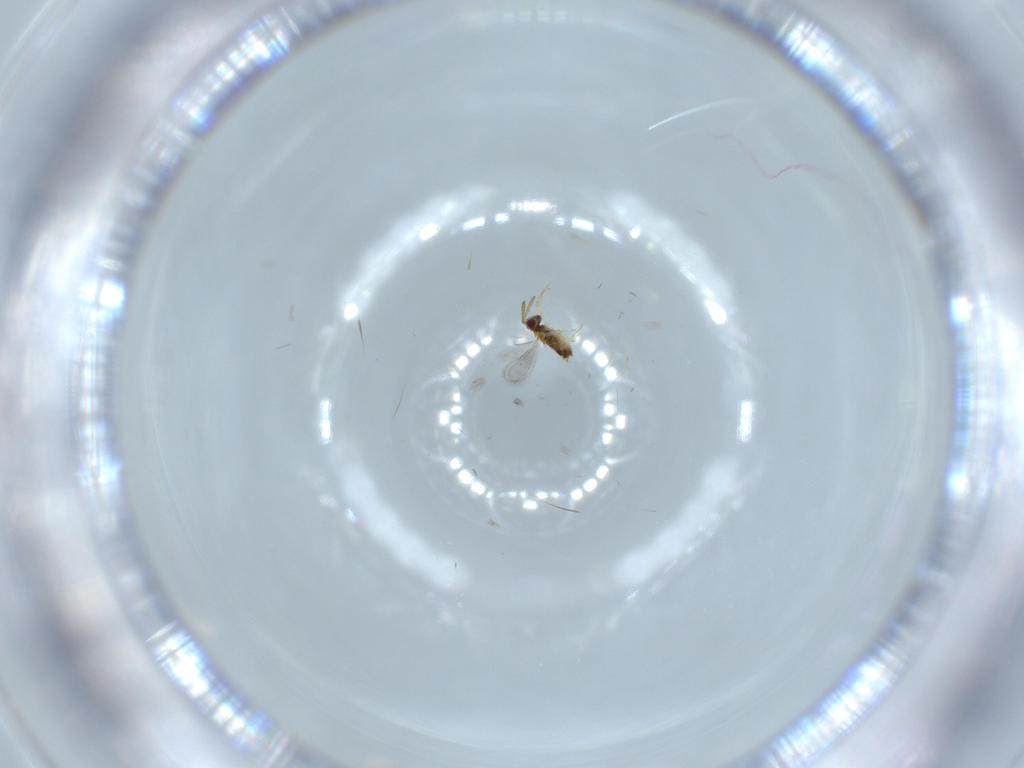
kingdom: Animalia
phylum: Arthropoda
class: Insecta
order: Hymenoptera
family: Aphelinidae
